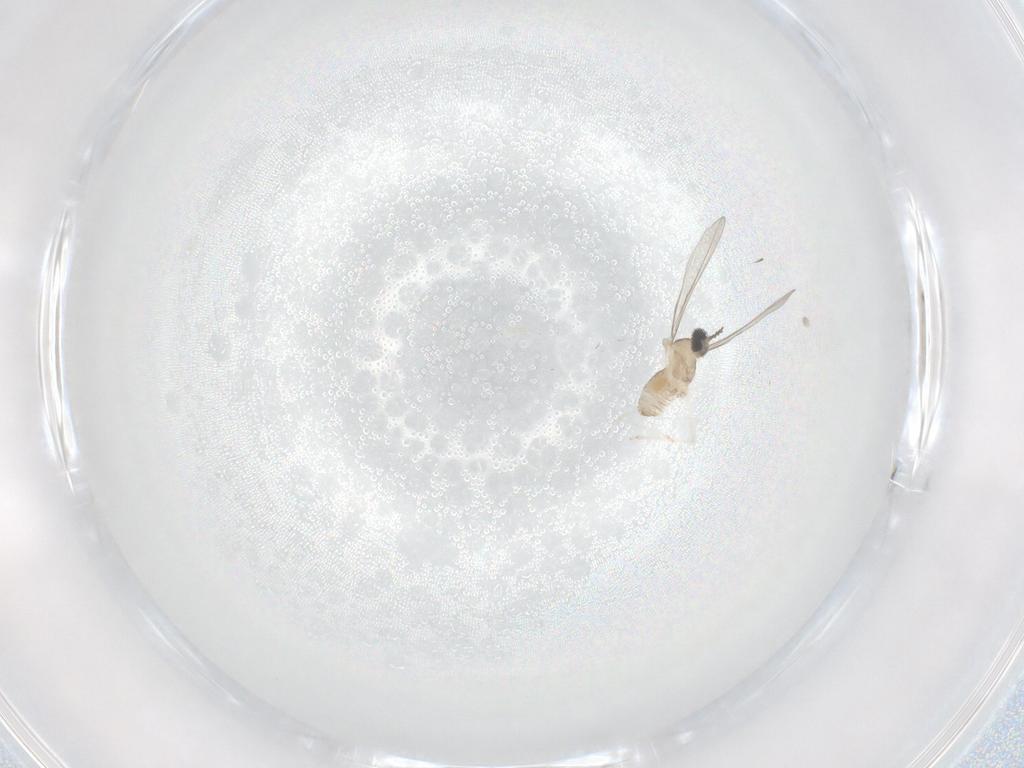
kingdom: Animalia
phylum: Arthropoda
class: Insecta
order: Diptera
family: Cecidomyiidae
